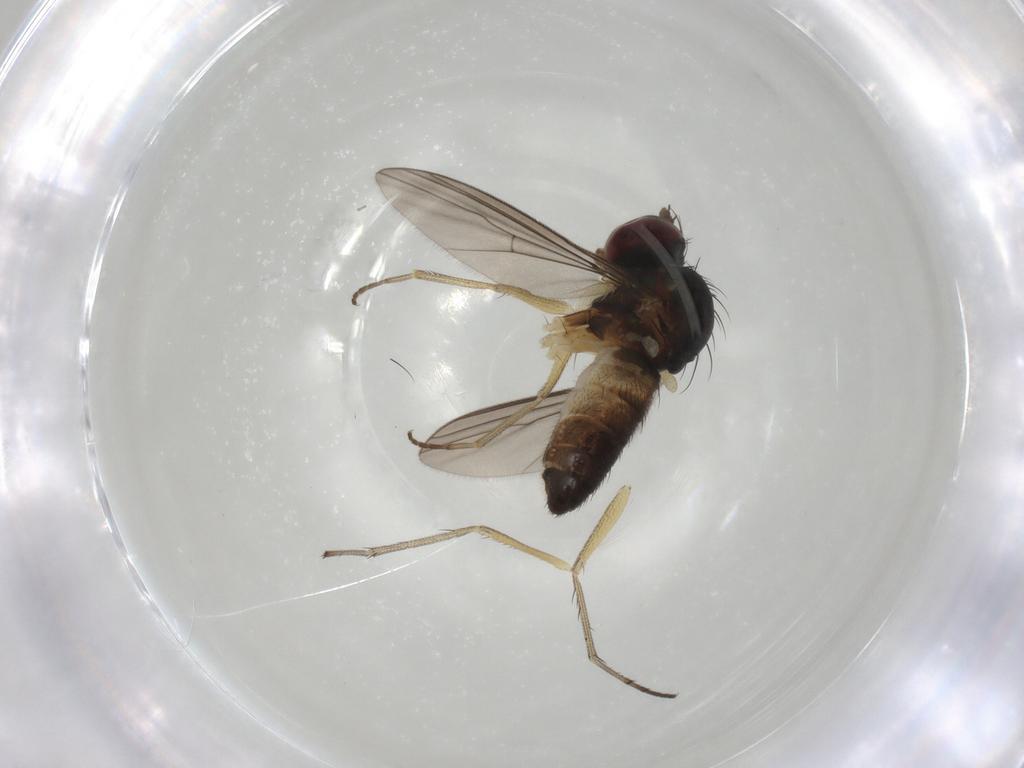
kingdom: Animalia
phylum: Arthropoda
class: Insecta
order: Diptera
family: Dolichopodidae
